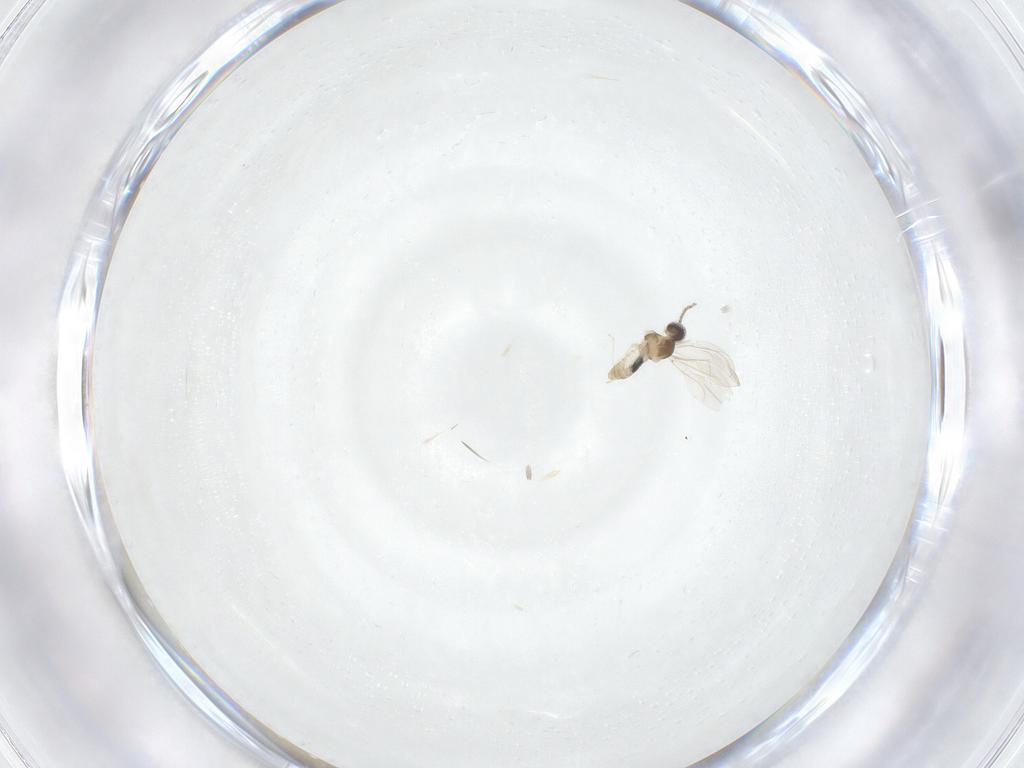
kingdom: Animalia
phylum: Arthropoda
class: Insecta
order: Diptera
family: Cecidomyiidae
